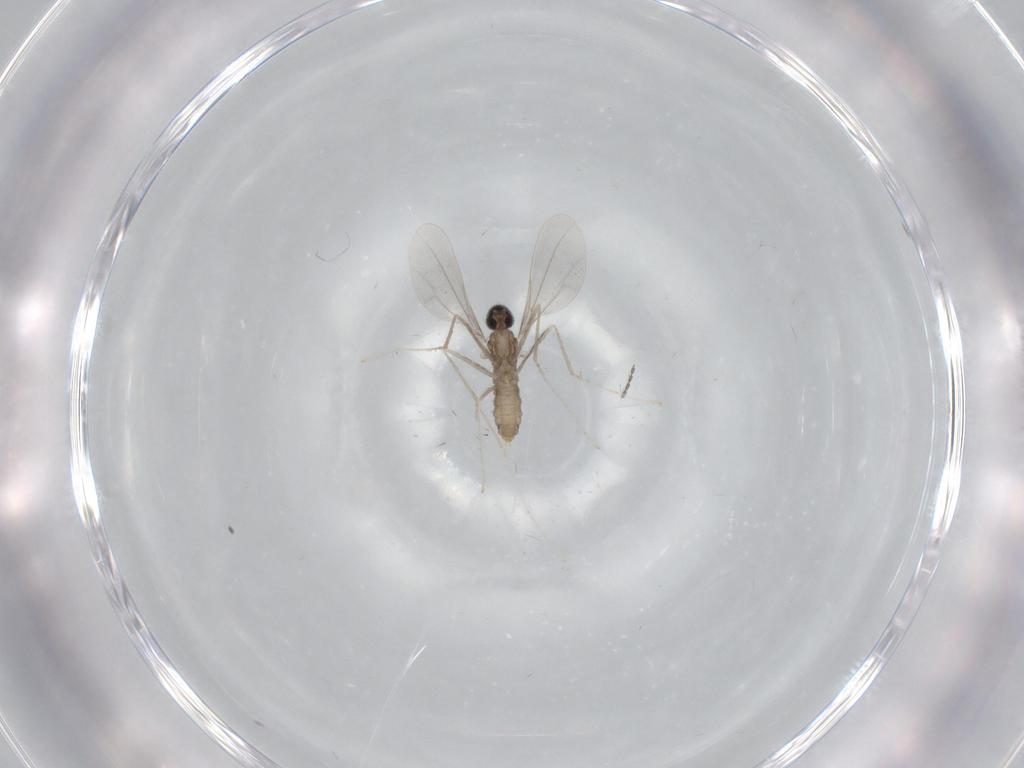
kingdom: Animalia
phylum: Arthropoda
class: Insecta
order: Diptera
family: Cecidomyiidae
